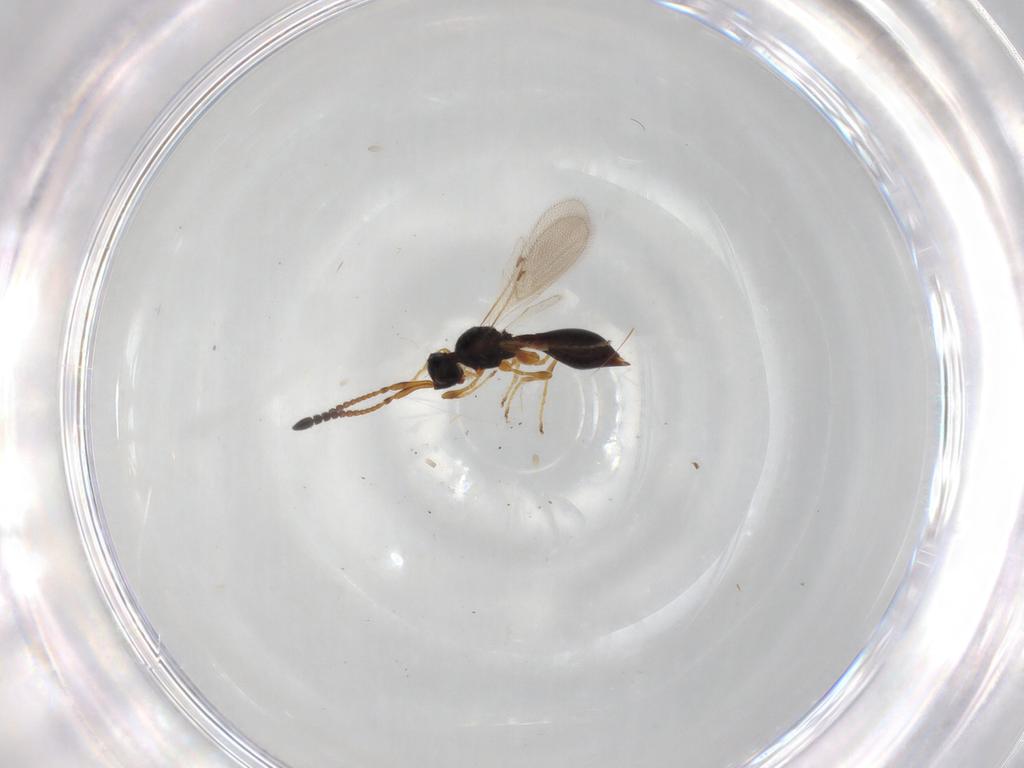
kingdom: Animalia
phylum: Arthropoda
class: Insecta
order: Hymenoptera
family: Diapriidae
